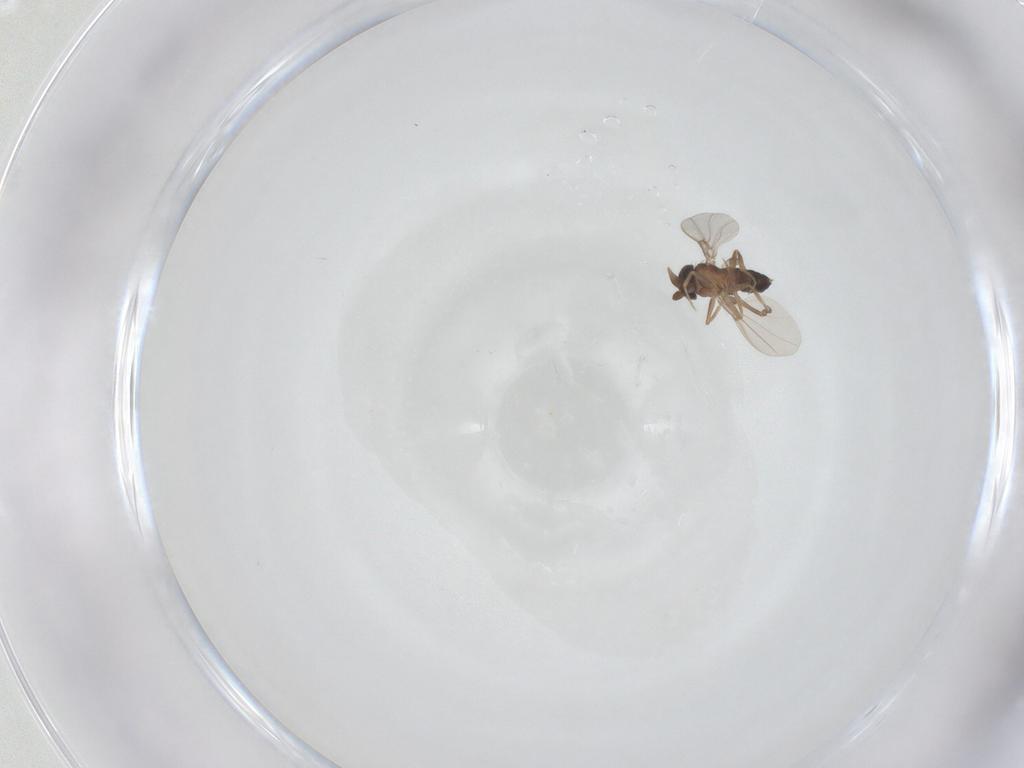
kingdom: Animalia
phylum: Arthropoda
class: Insecta
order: Diptera
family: Phoridae
